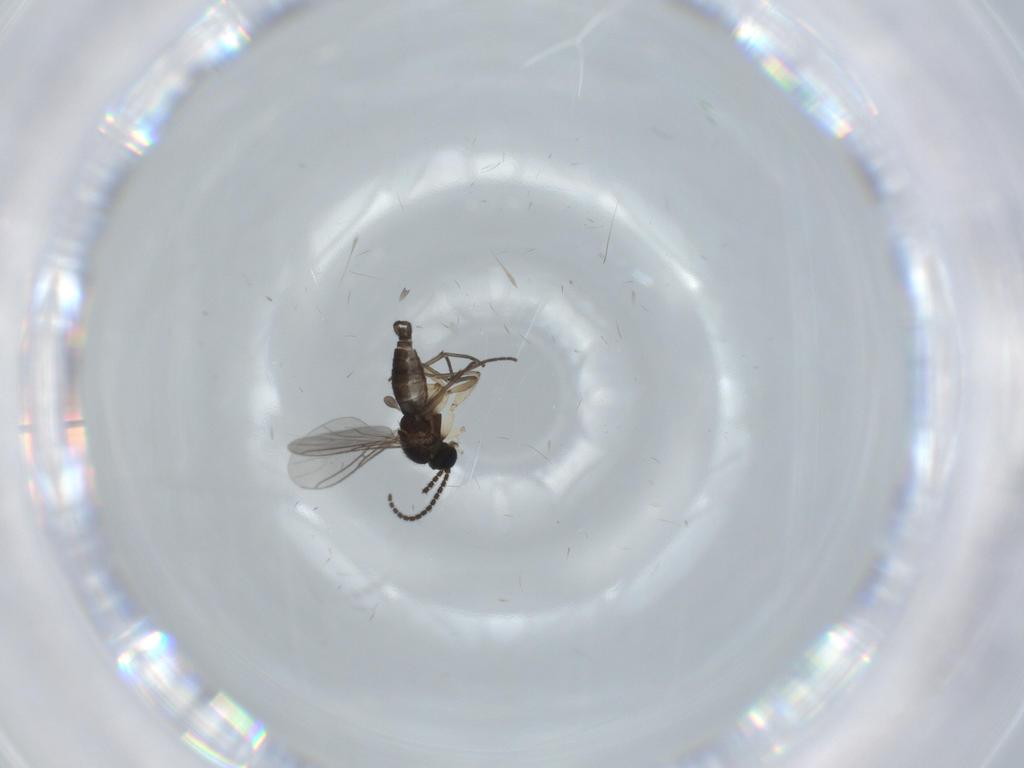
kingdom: Animalia
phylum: Arthropoda
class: Insecta
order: Diptera
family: Sciaridae
